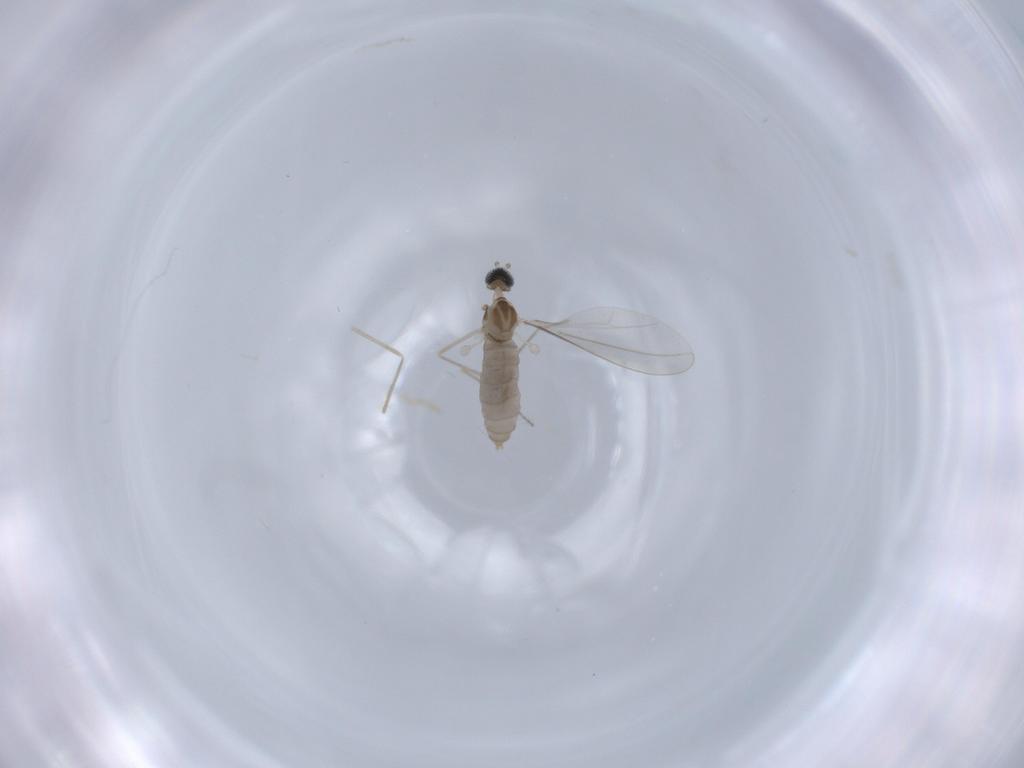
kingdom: Animalia
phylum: Arthropoda
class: Insecta
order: Diptera
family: Cecidomyiidae
